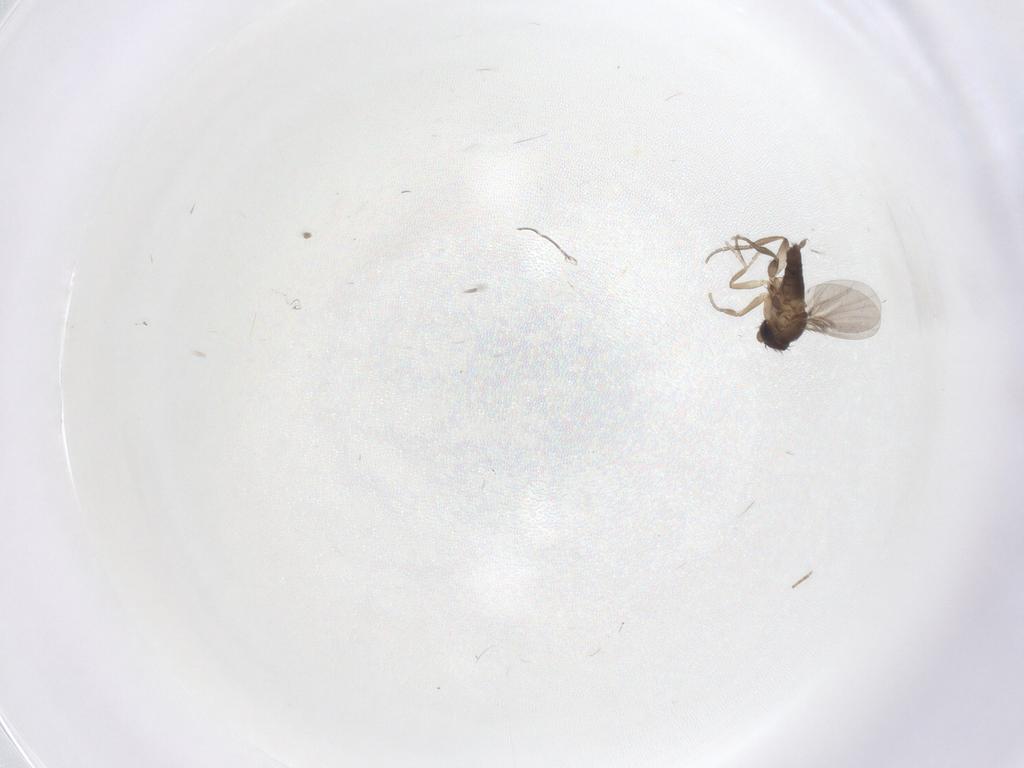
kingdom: Animalia
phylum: Arthropoda
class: Insecta
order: Diptera
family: Phoridae
